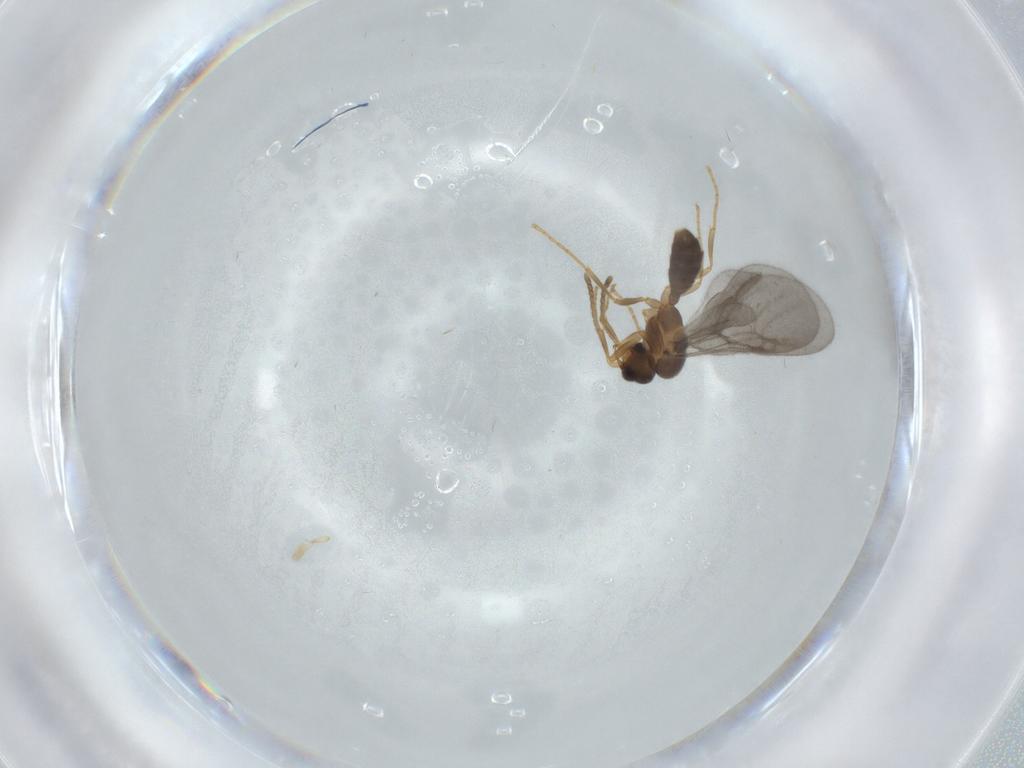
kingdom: Animalia
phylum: Arthropoda
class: Insecta
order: Hymenoptera
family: Formicidae
